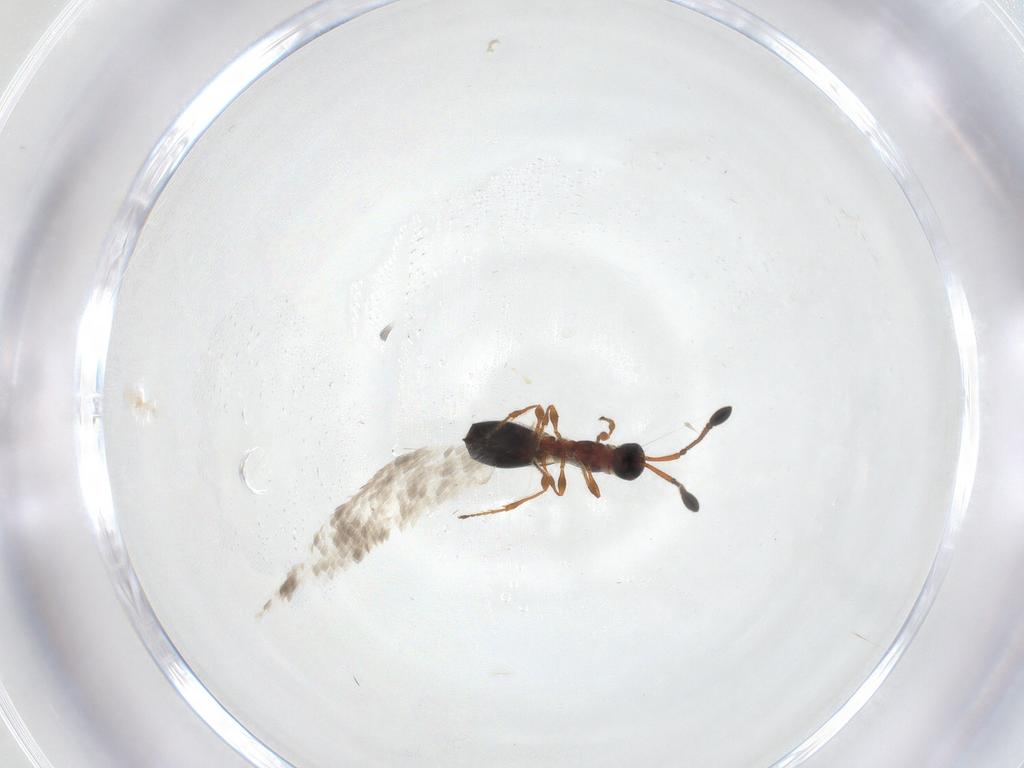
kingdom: Animalia
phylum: Arthropoda
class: Insecta
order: Hymenoptera
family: Diapriidae
